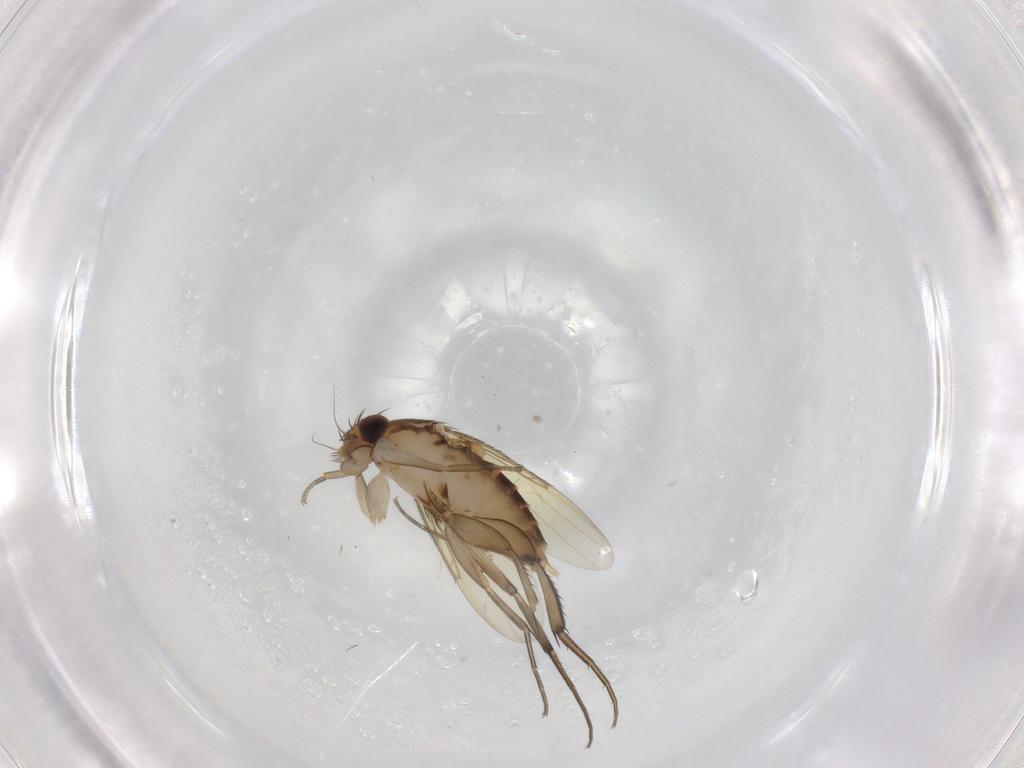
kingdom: Animalia
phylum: Arthropoda
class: Insecta
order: Diptera
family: Phoridae
